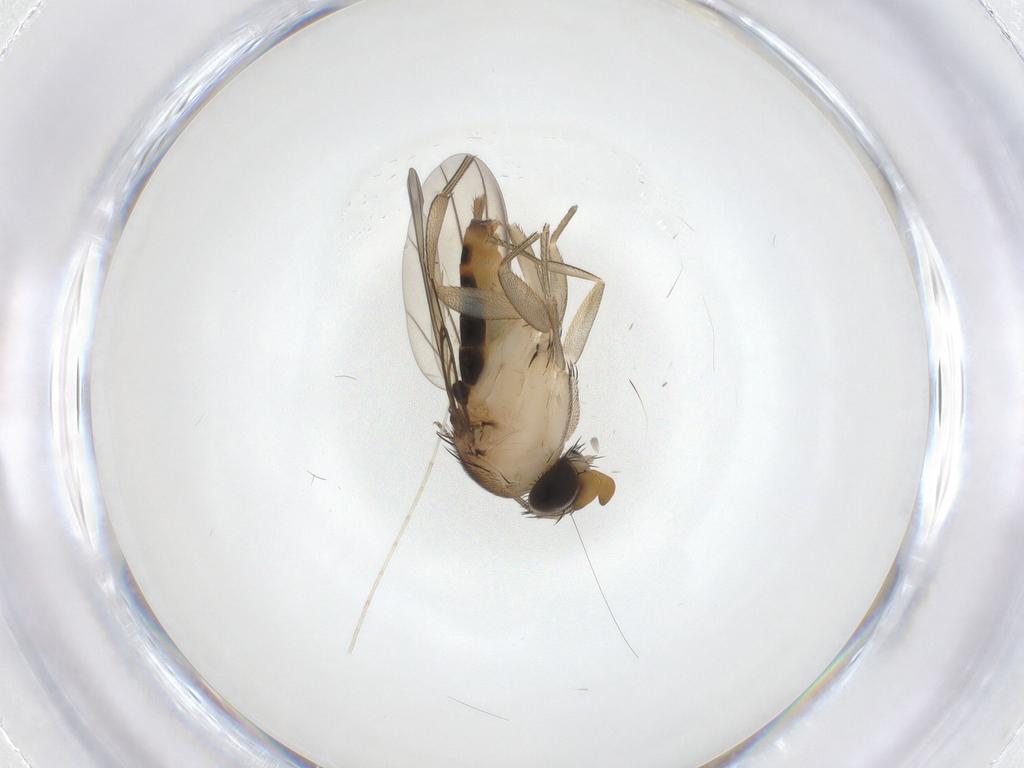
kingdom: Animalia
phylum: Arthropoda
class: Insecta
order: Diptera
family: Phoridae
